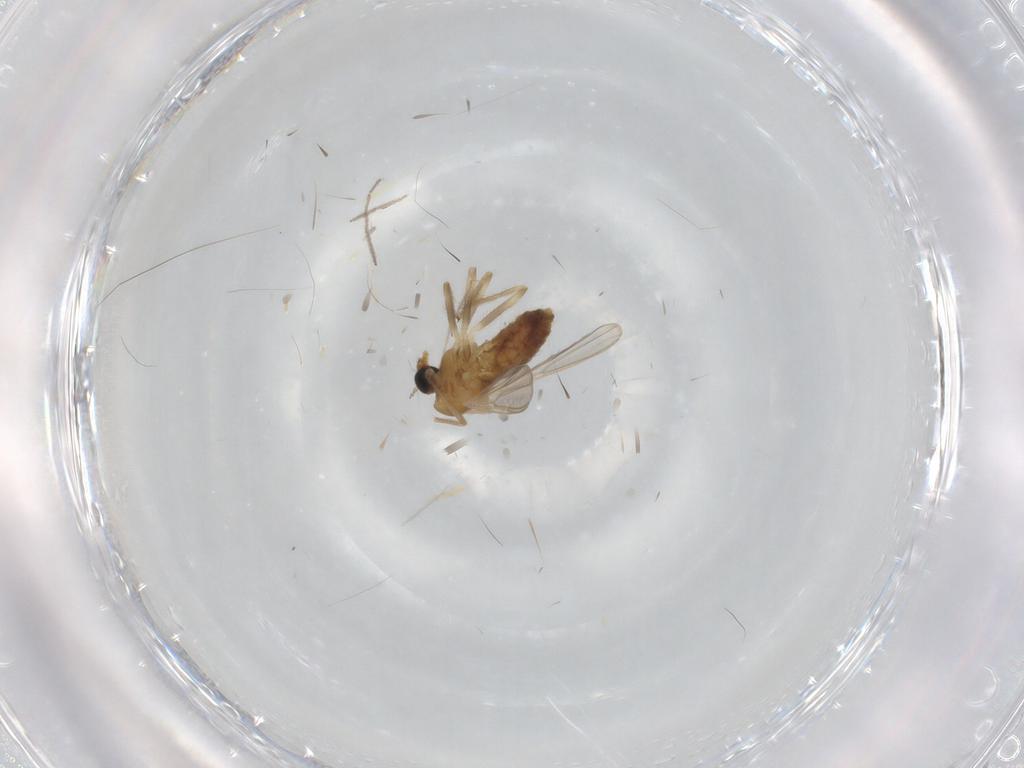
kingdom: Animalia
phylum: Arthropoda
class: Insecta
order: Diptera
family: Chironomidae
